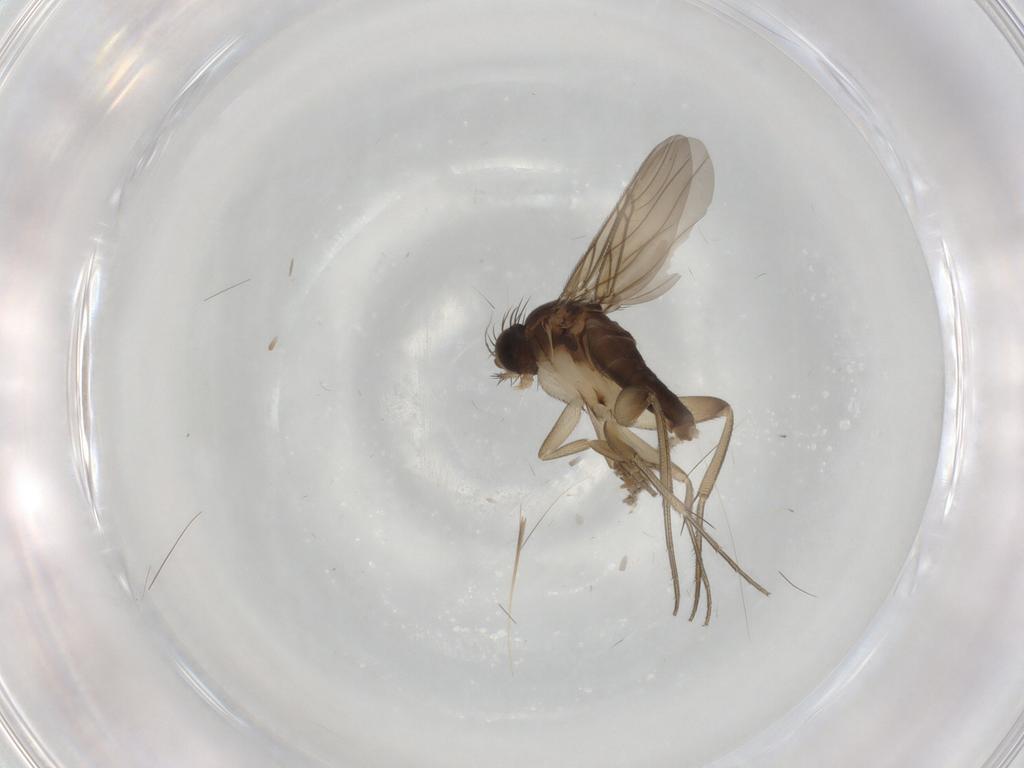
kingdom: Animalia
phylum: Arthropoda
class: Insecta
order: Diptera
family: Phoridae
